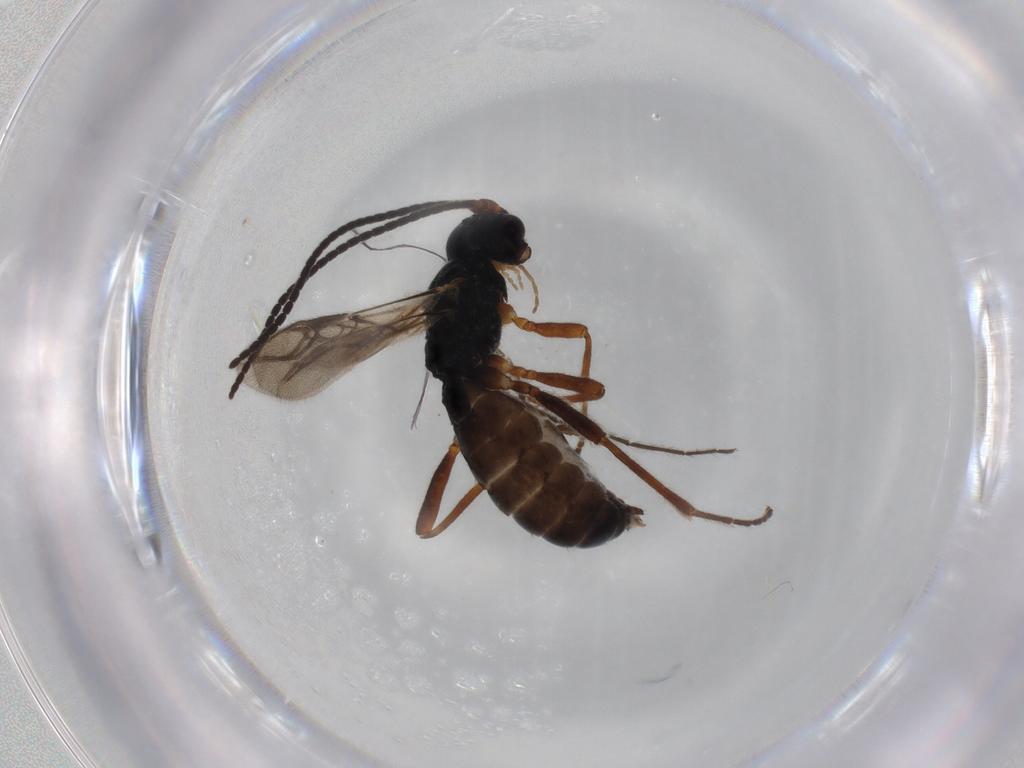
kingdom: Animalia
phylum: Arthropoda
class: Insecta
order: Hymenoptera
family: Braconidae
